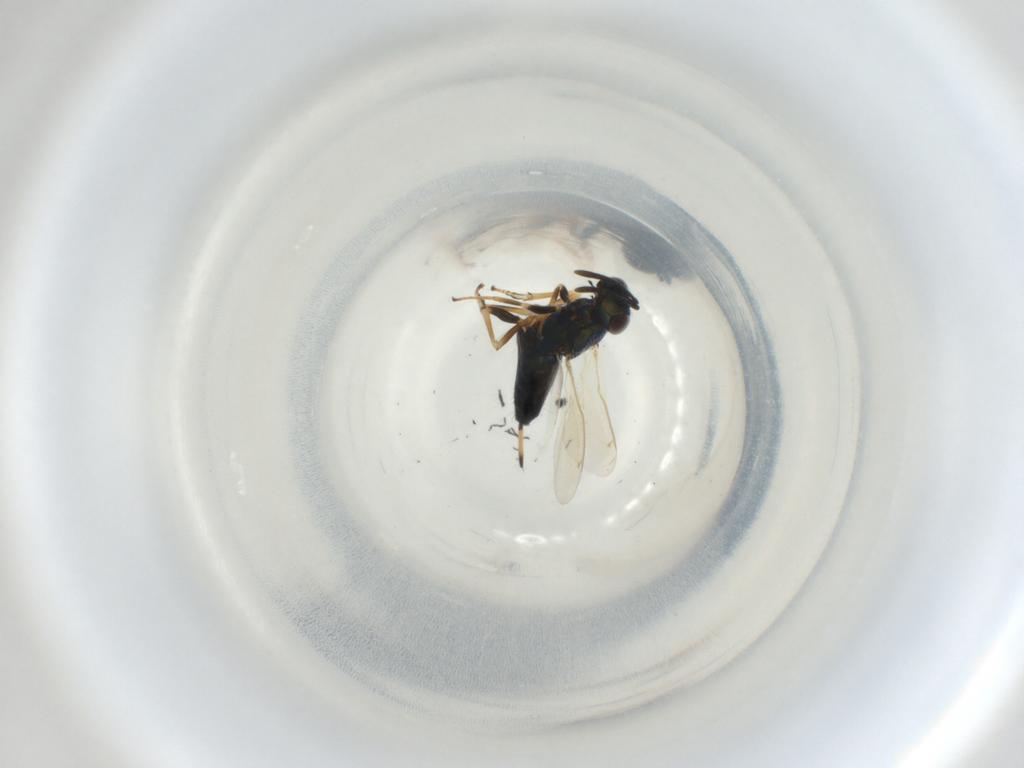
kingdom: Animalia
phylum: Arthropoda
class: Insecta
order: Hymenoptera
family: Eupelmidae
